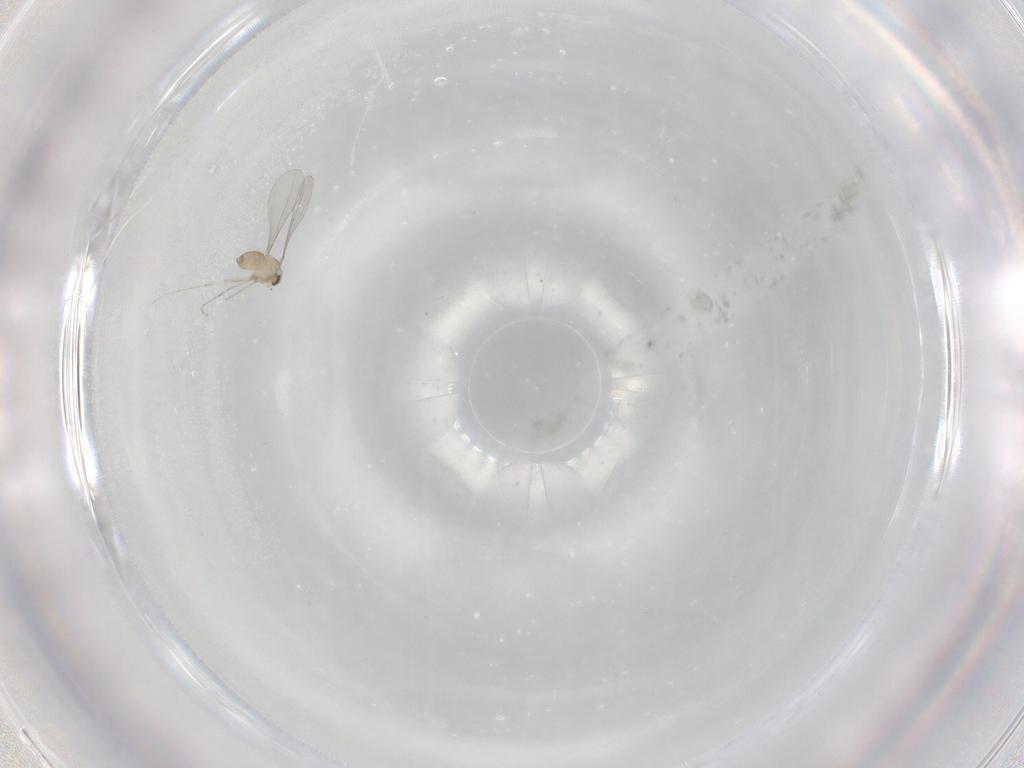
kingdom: Animalia
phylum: Arthropoda
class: Insecta
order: Diptera
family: Cecidomyiidae
